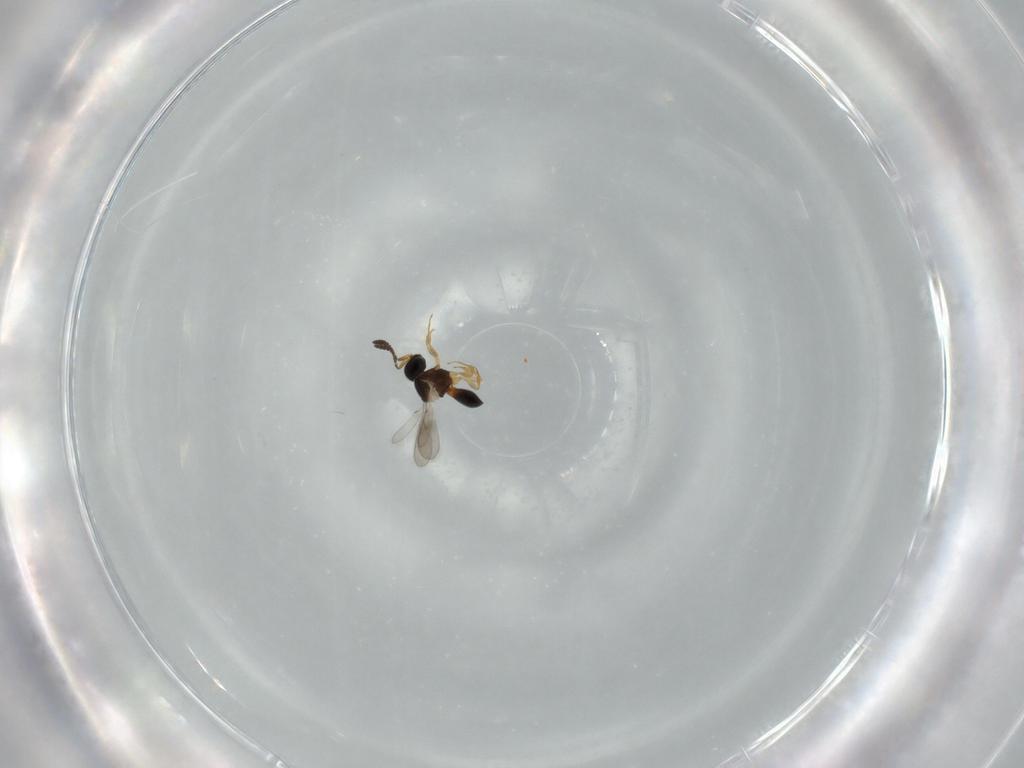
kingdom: Animalia
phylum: Arthropoda
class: Insecta
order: Hymenoptera
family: Scelionidae
